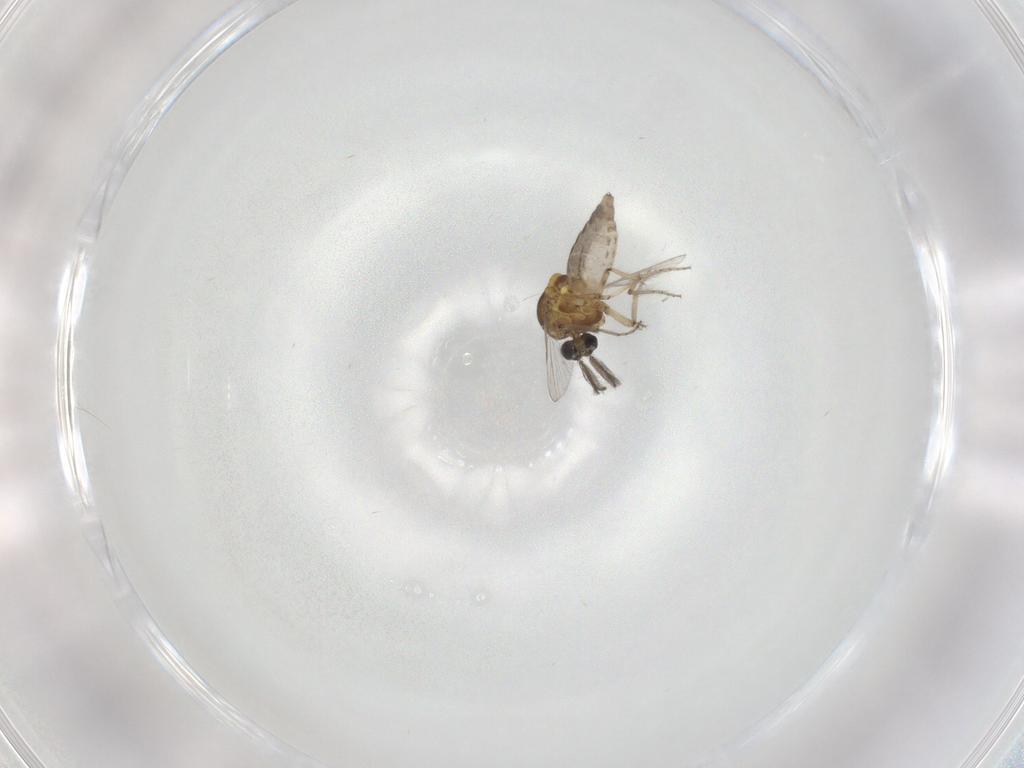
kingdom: Animalia
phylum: Arthropoda
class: Insecta
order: Diptera
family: Ceratopogonidae
